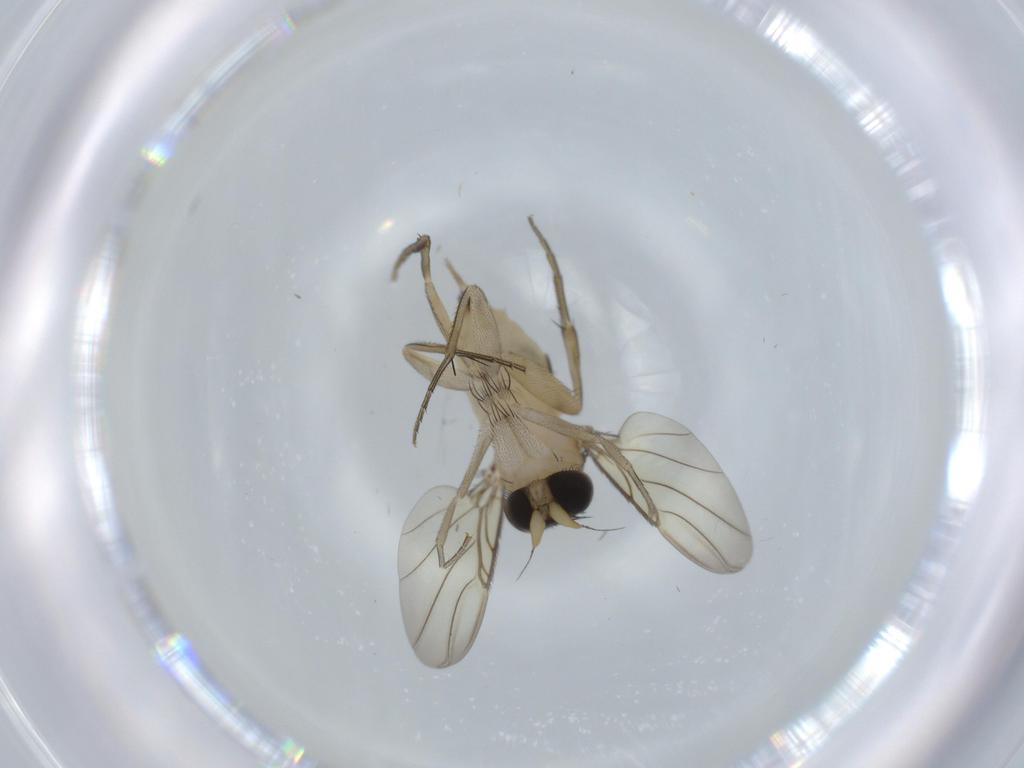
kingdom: Animalia
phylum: Arthropoda
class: Insecta
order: Diptera
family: Phoridae
